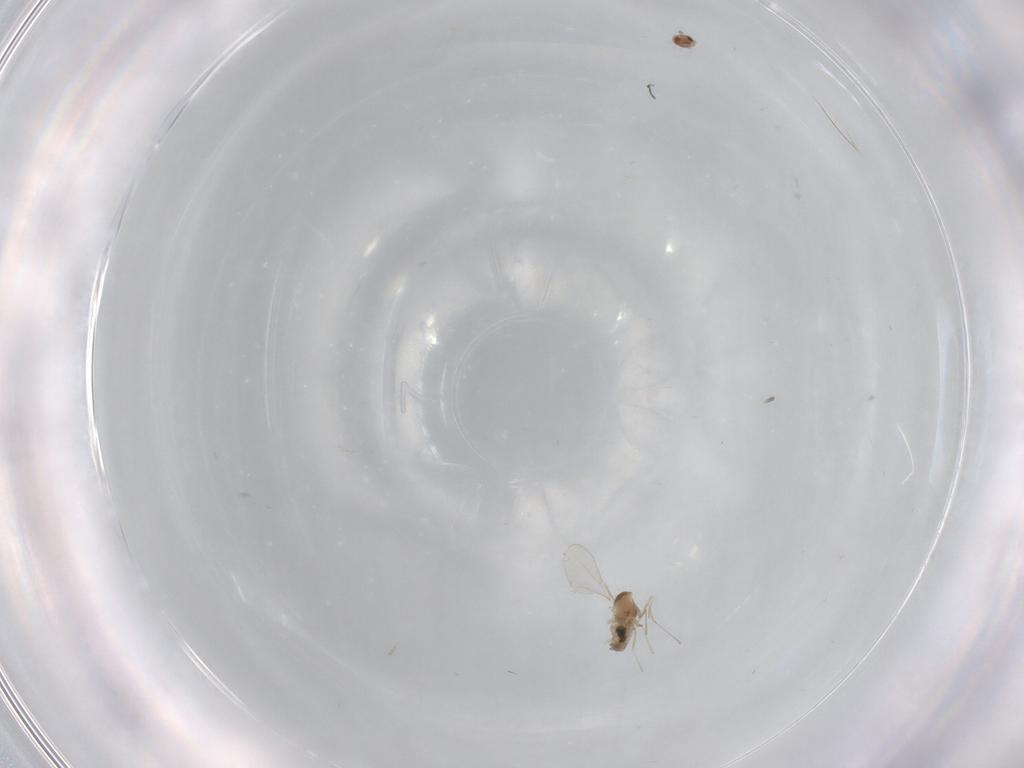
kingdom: Animalia
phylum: Arthropoda
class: Insecta
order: Diptera
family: Cecidomyiidae
